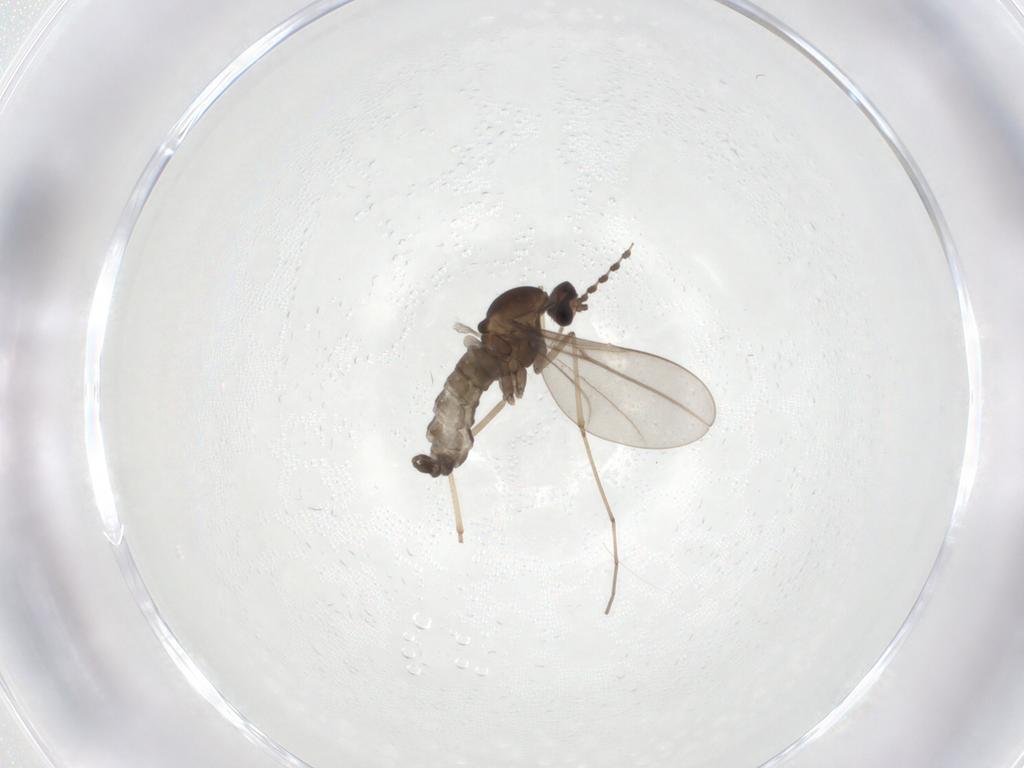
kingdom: Animalia
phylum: Arthropoda
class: Insecta
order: Diptera
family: Cecidomyiidae
